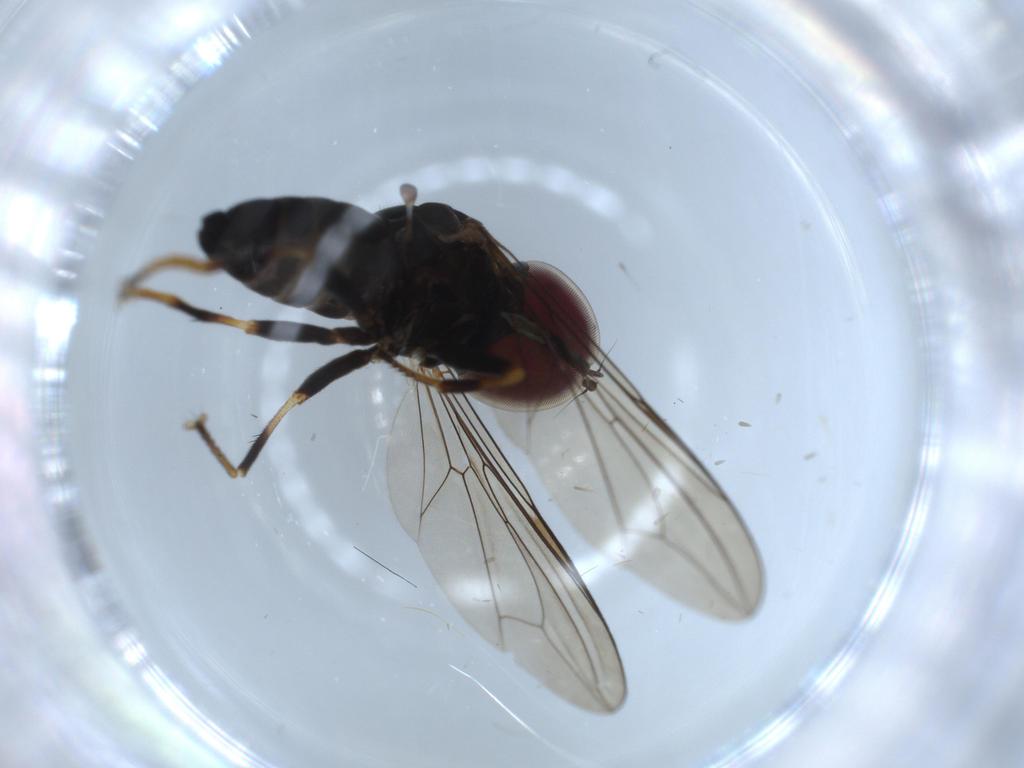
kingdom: Animalia
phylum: Arthropoda
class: Insecta
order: Diptera
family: Pipunculidae
